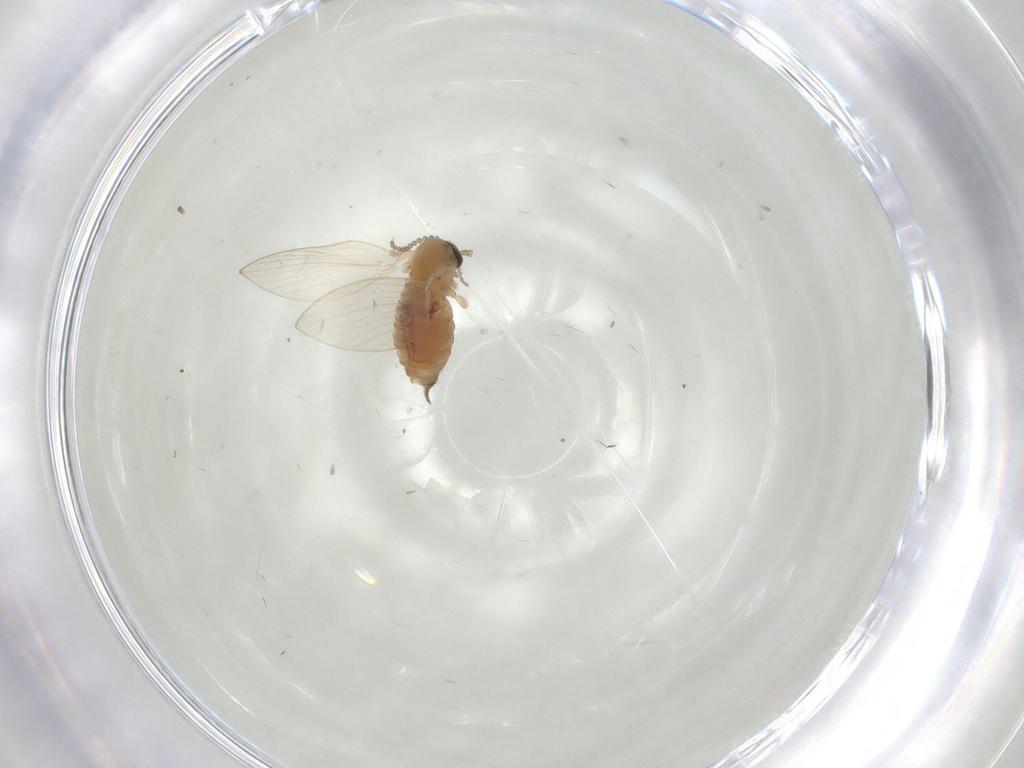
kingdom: Animalia
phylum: Arthropoda
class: Insecta
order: Diptera
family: Psychodidae
